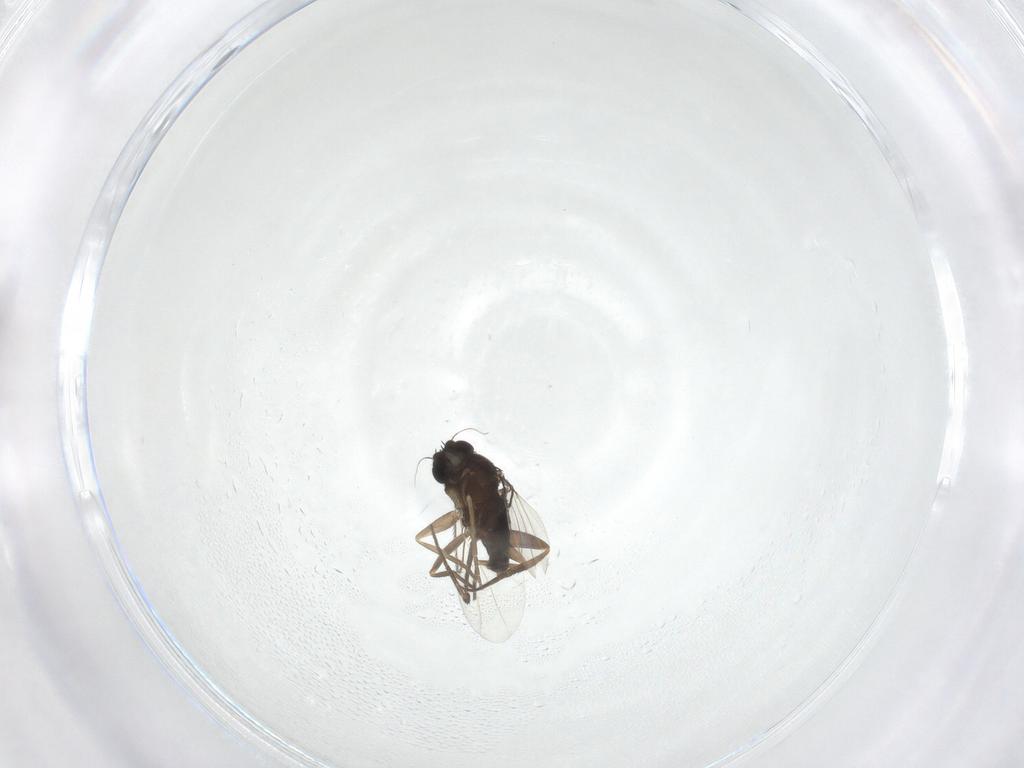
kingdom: Animalia
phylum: Arthropoda
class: Insecta
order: Diptera
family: Phoridae
